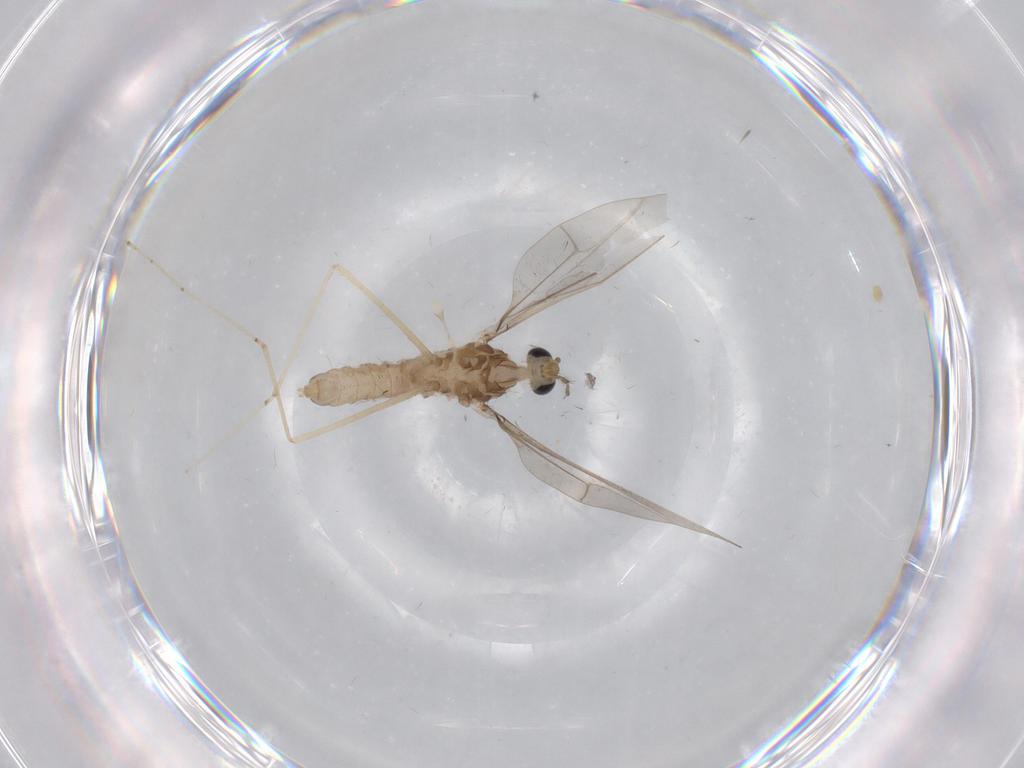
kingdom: Animalia
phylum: Arthropoda
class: Insecta
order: Diptera
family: Cecidomyiidae
